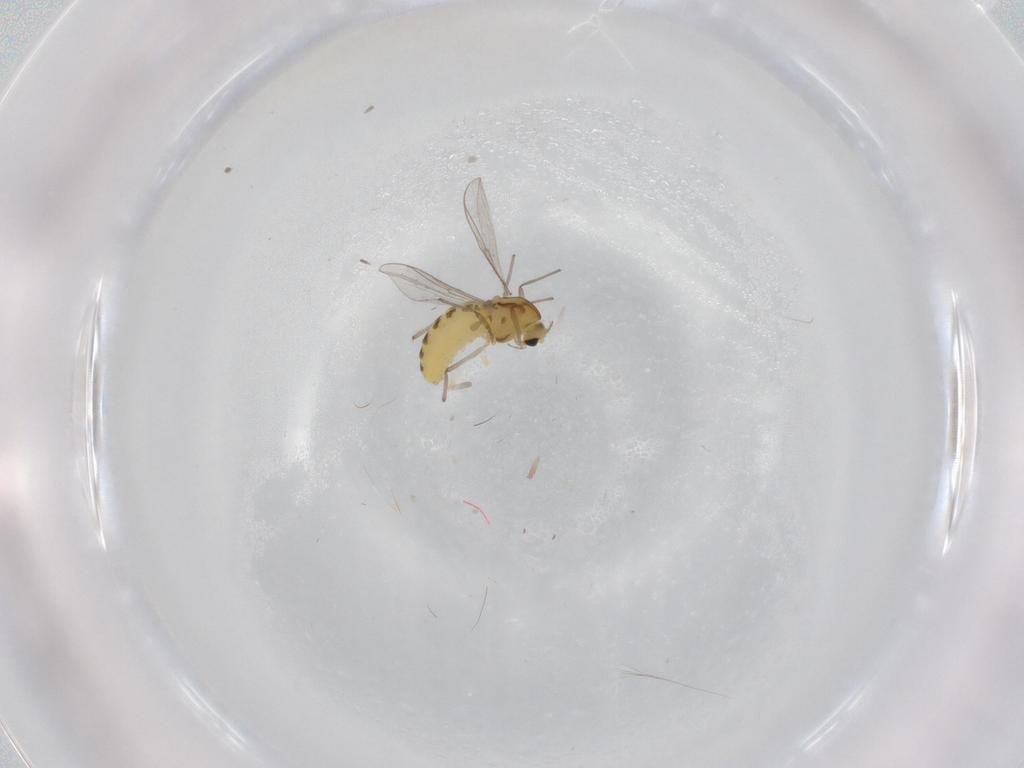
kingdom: Animalia
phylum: Arthropoda
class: Insecta
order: Diptera
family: Chironomidae
